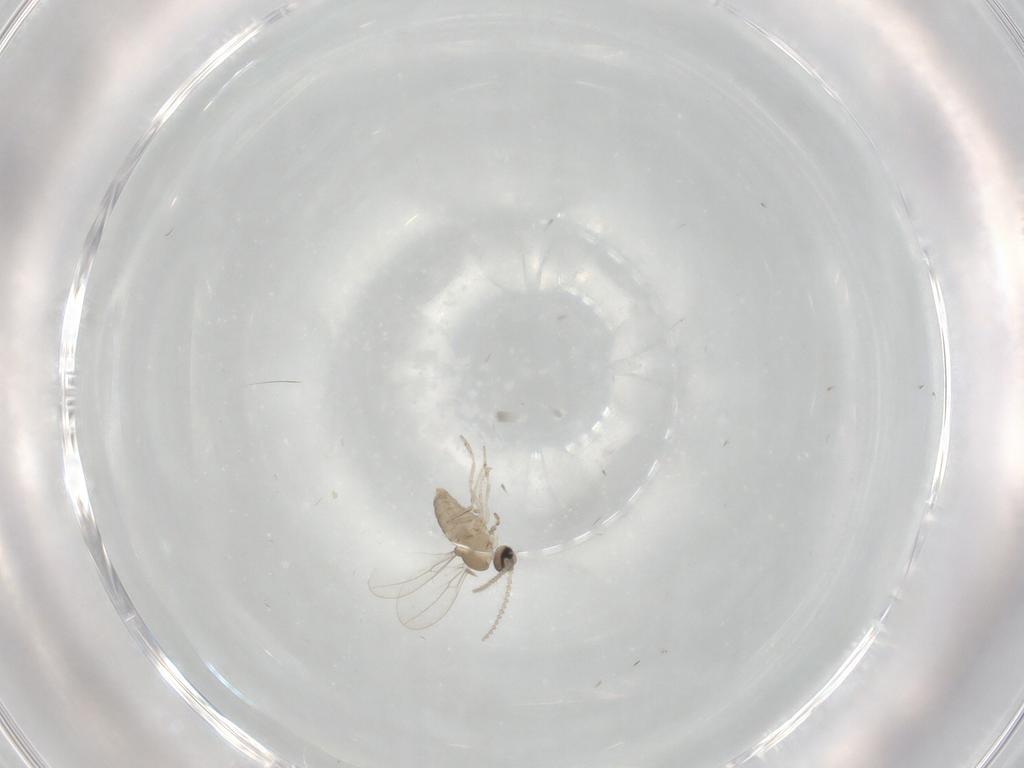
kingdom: Animalia
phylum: Arthropoda
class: Insecta
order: Diptera
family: Cecidomyiidae
